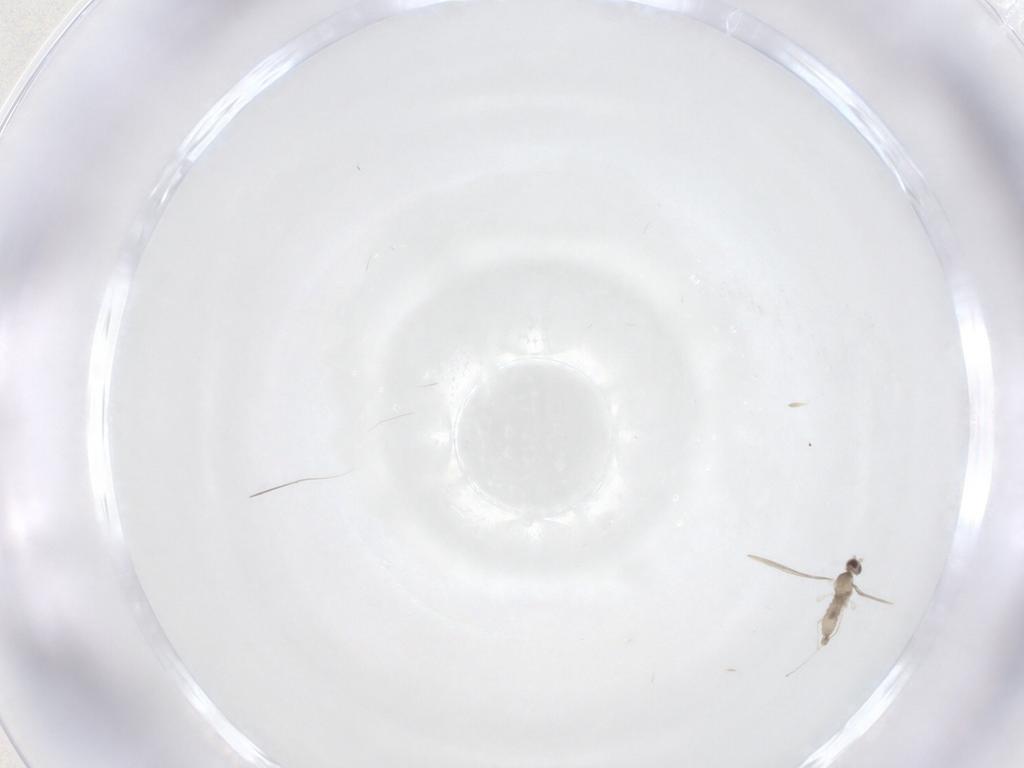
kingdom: Animalia
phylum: Arthropoda
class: Insecta
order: Diptera
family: Cecidomyiidae
